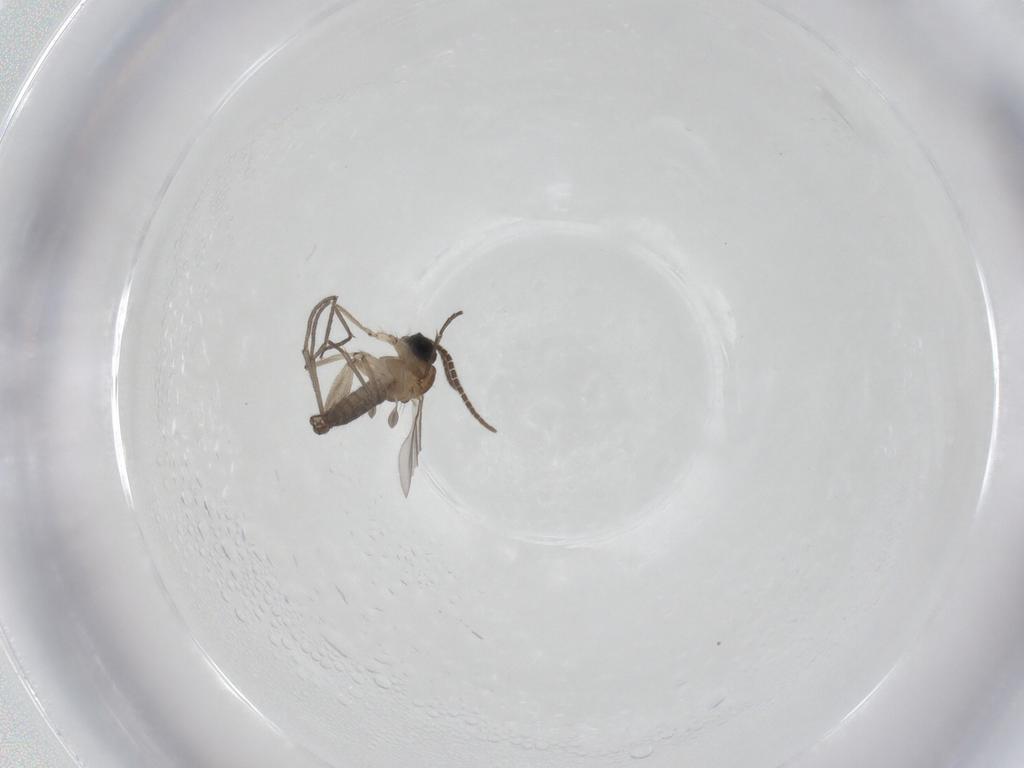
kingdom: Animalia
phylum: Arthropoda
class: Insecta
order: Diptera
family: Sciaridae
